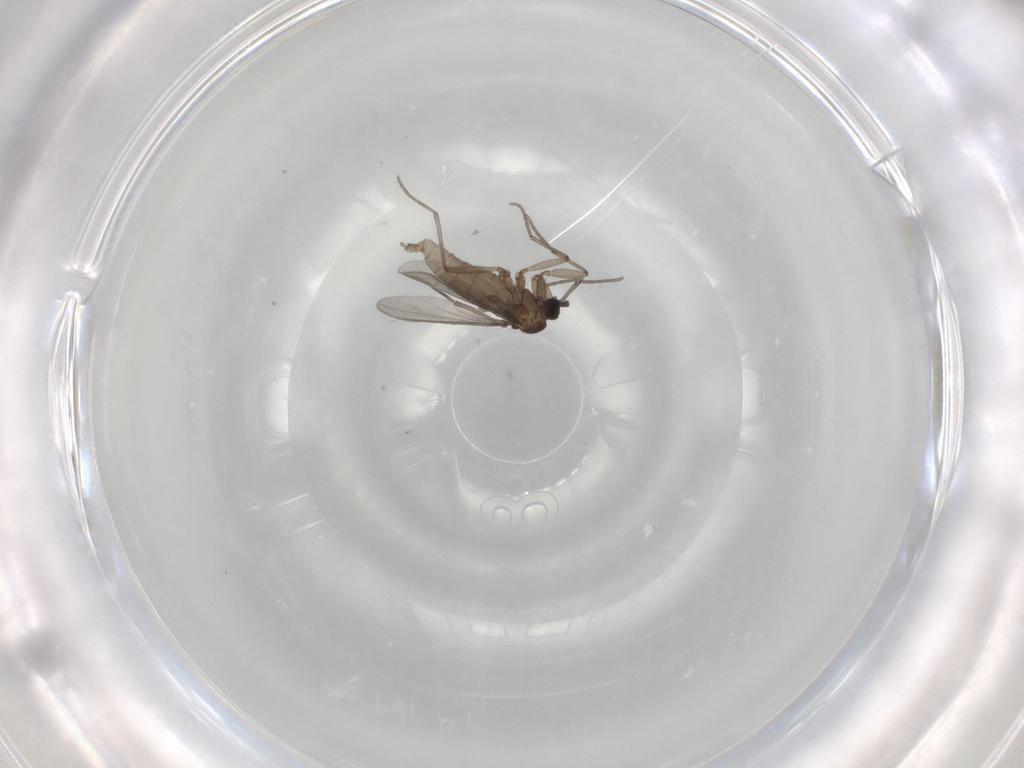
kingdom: Animalia
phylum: Arthropoda
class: Insecta
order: Diptera
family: Sciaridae
